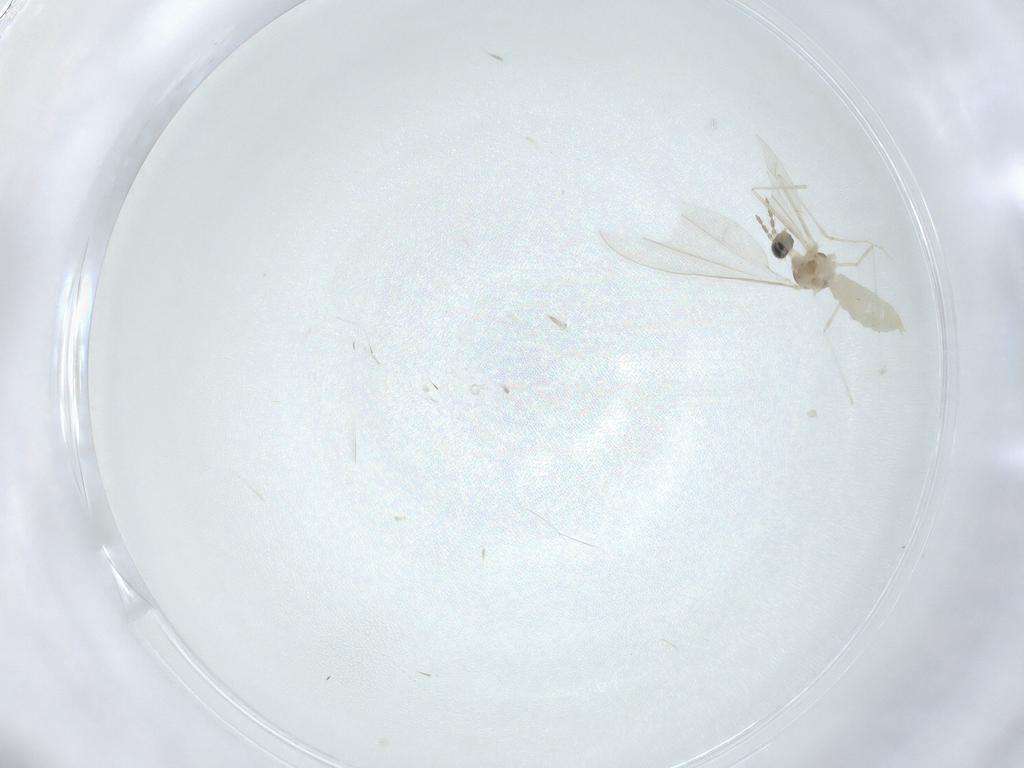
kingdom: Animalia
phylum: Arthropoda
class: Insecta
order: Diptera
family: Cecidomyiidae
